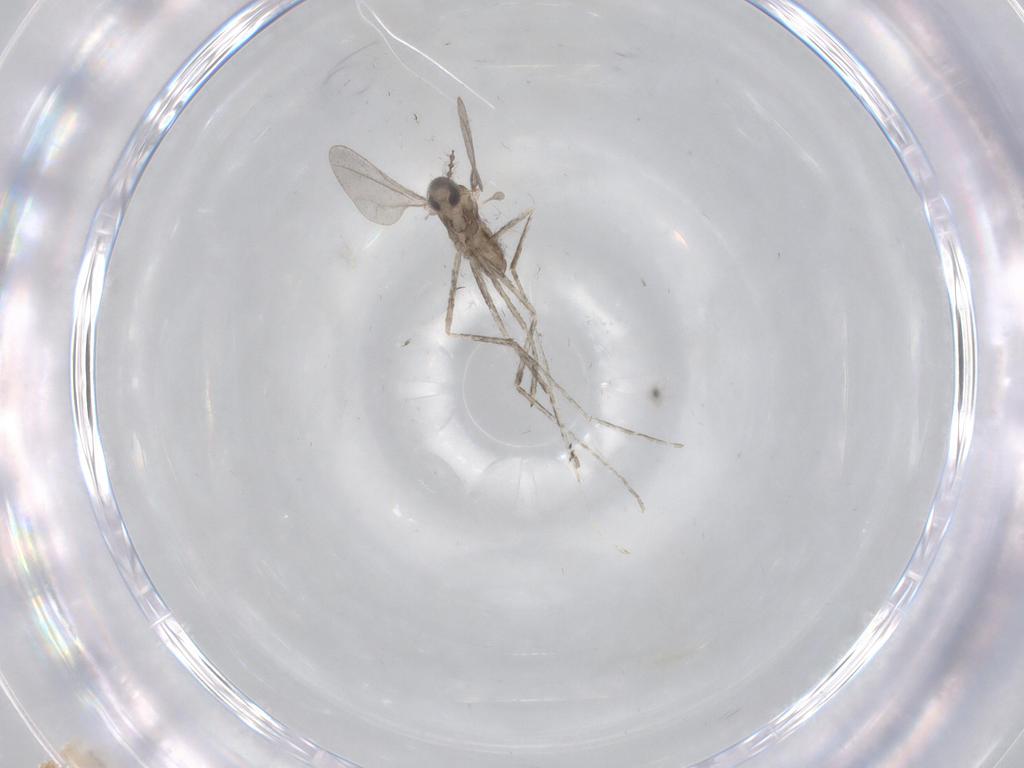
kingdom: Animalia
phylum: Arthropoda
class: Insecta
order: Diptera
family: Cecidomyiidae
